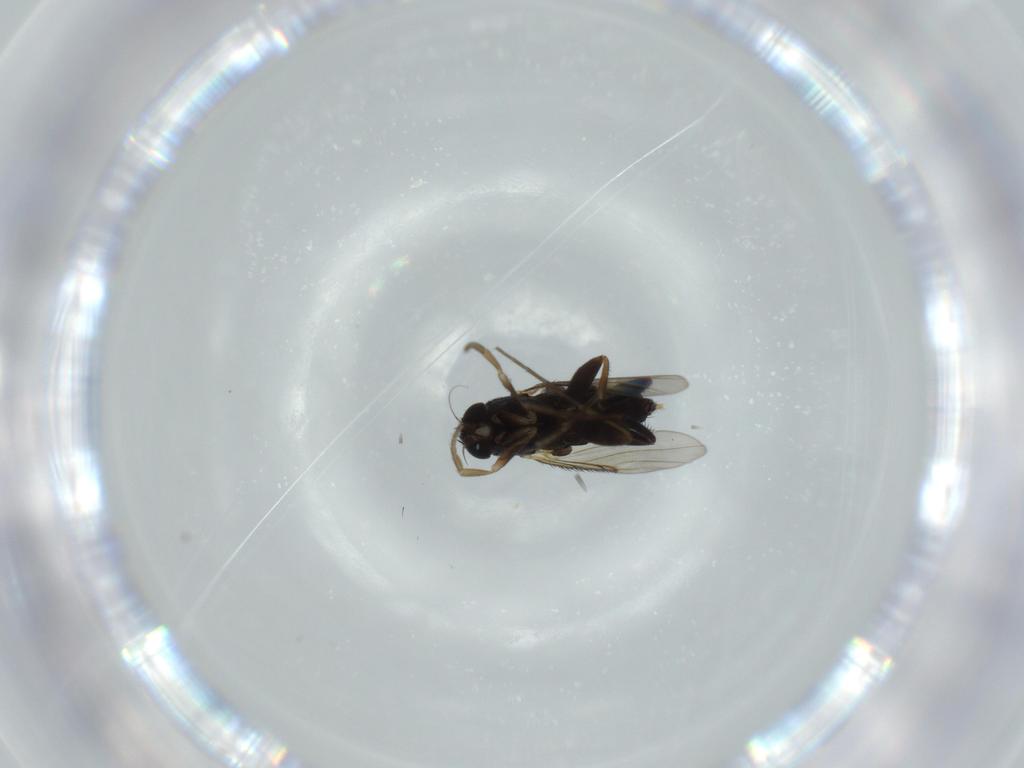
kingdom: Animalia
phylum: Arthropoda
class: Insecta
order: Diptera
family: Phoridae
